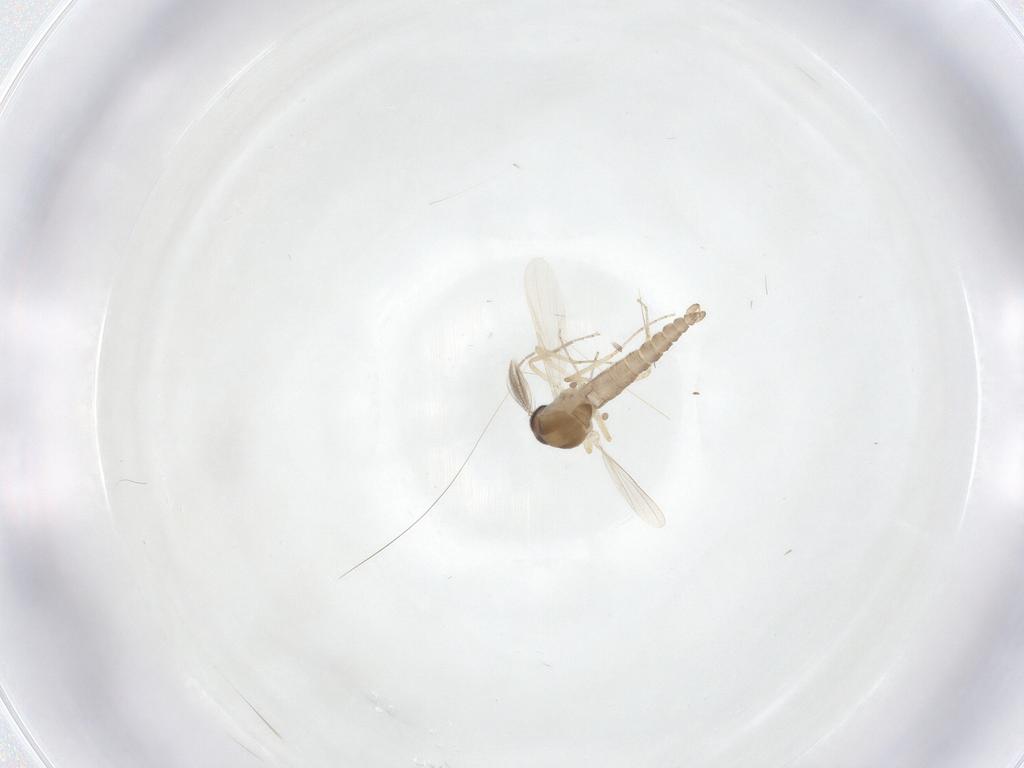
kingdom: Animalia
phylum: Arthropoda
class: Insecta
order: Diptera
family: Ceratopogonidae
